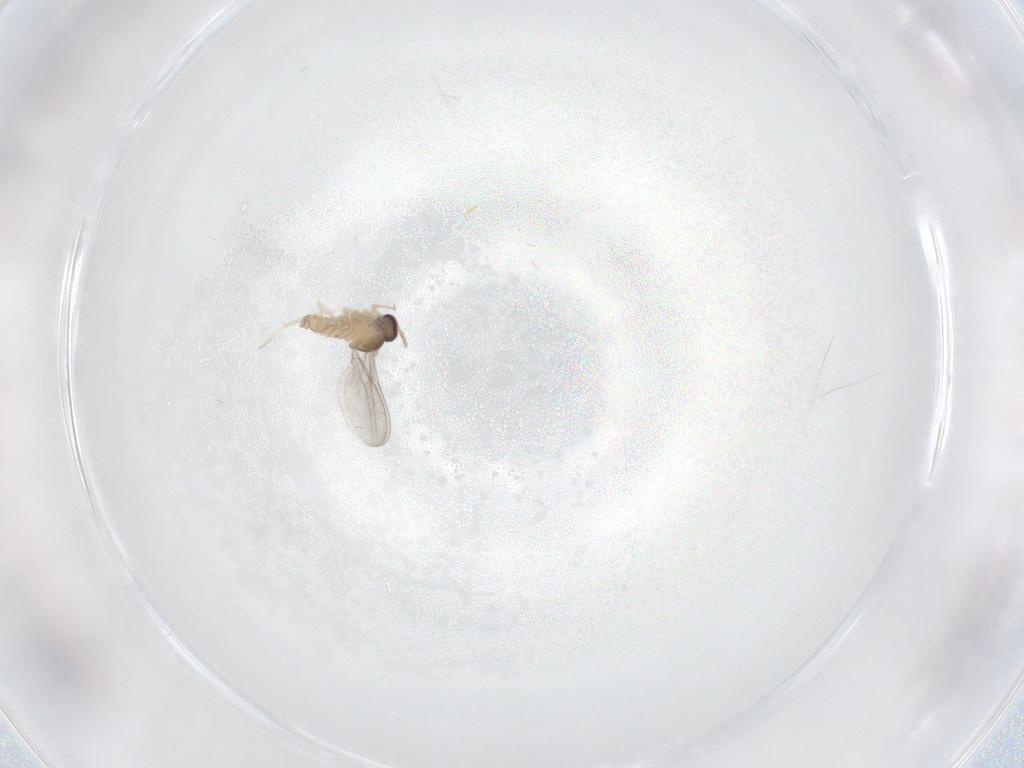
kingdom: Animalia
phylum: Arthropoda
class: Insecta
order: Diptera
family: Cecidomyiidae
